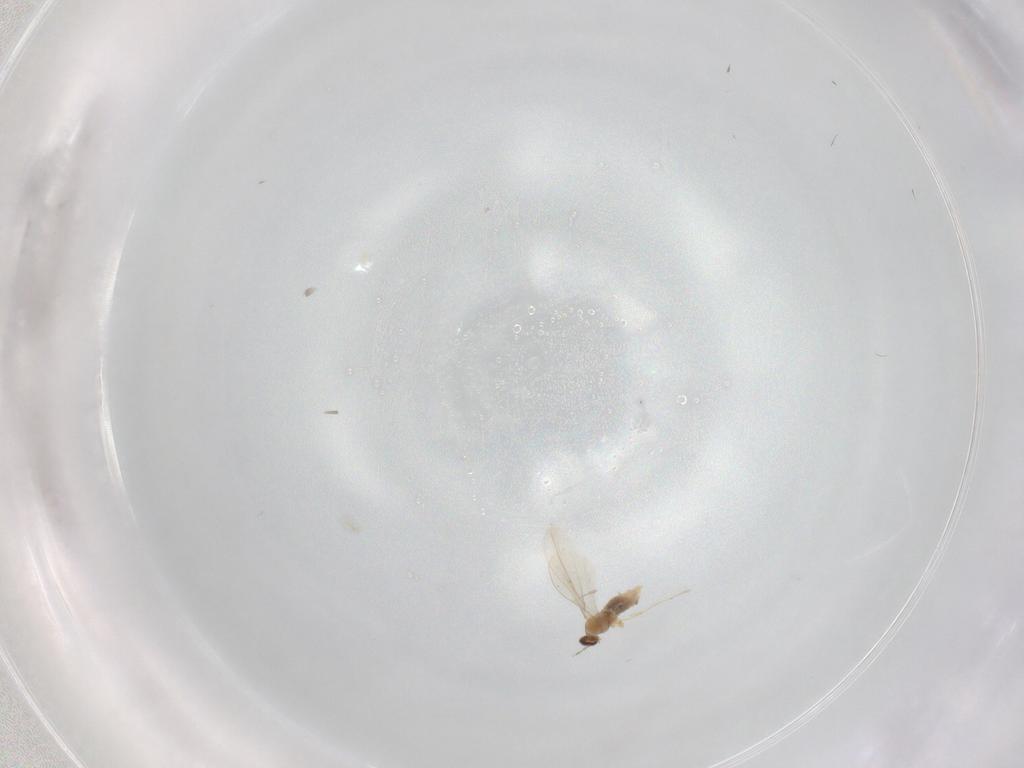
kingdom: Animalia
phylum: Arthropoda
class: Insecta
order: Diptera
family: Cecidomyiidae
